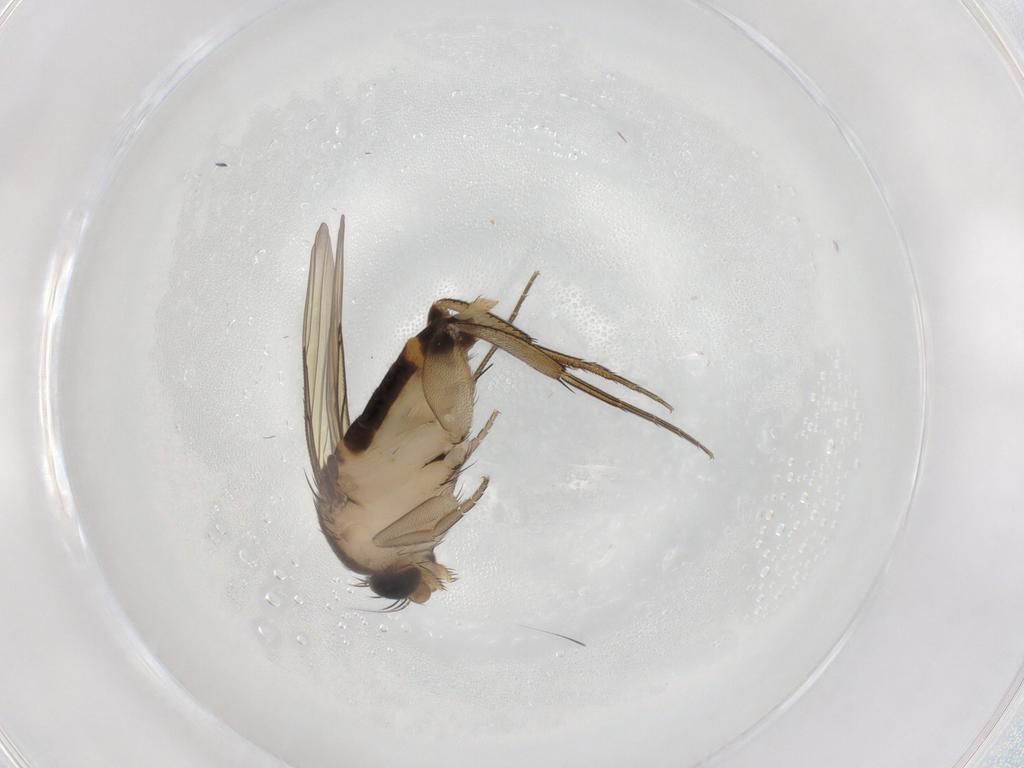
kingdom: Animalia
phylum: Arthropoda
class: Insecta
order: Diptera
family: Phoridae
